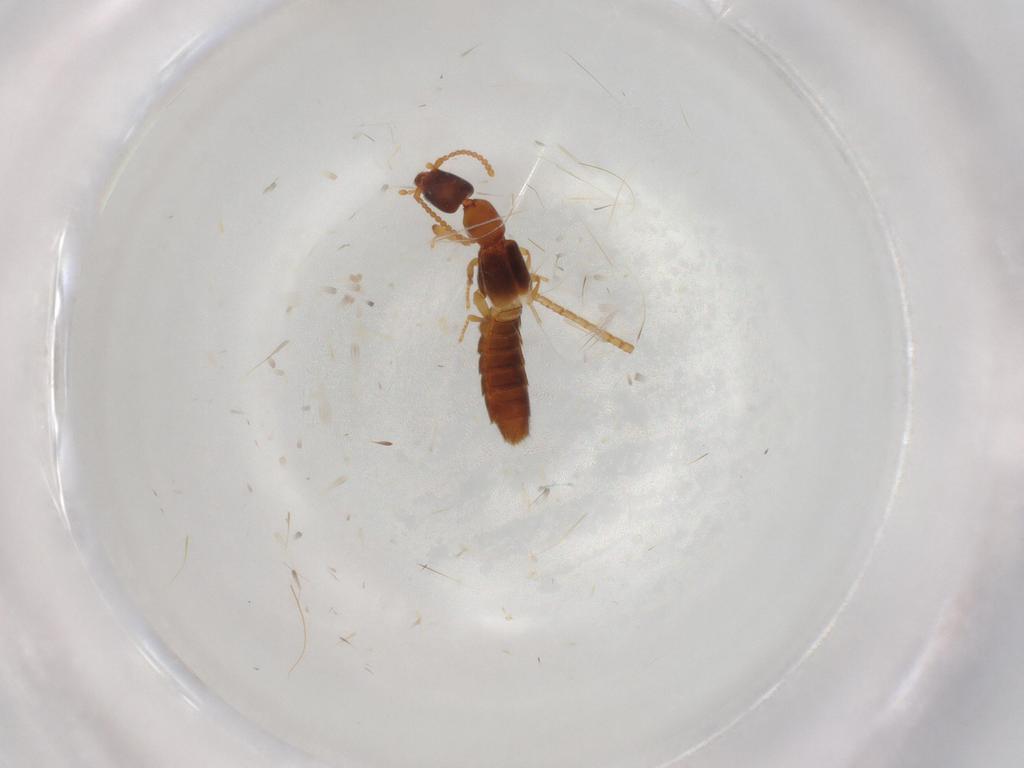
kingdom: Animalia
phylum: Arthropoda
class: Insecta
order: Coleoptera
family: Staphylinidae
